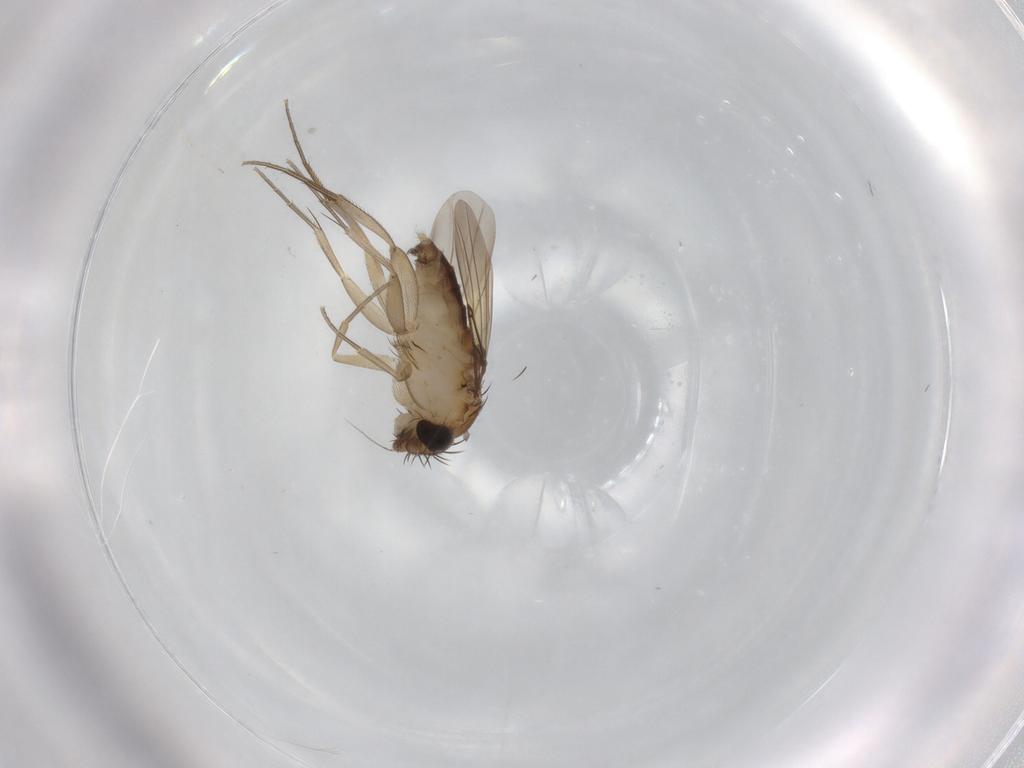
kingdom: Animalia
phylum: Arthropoda
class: Insecta
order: Diptera
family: Phoridae
